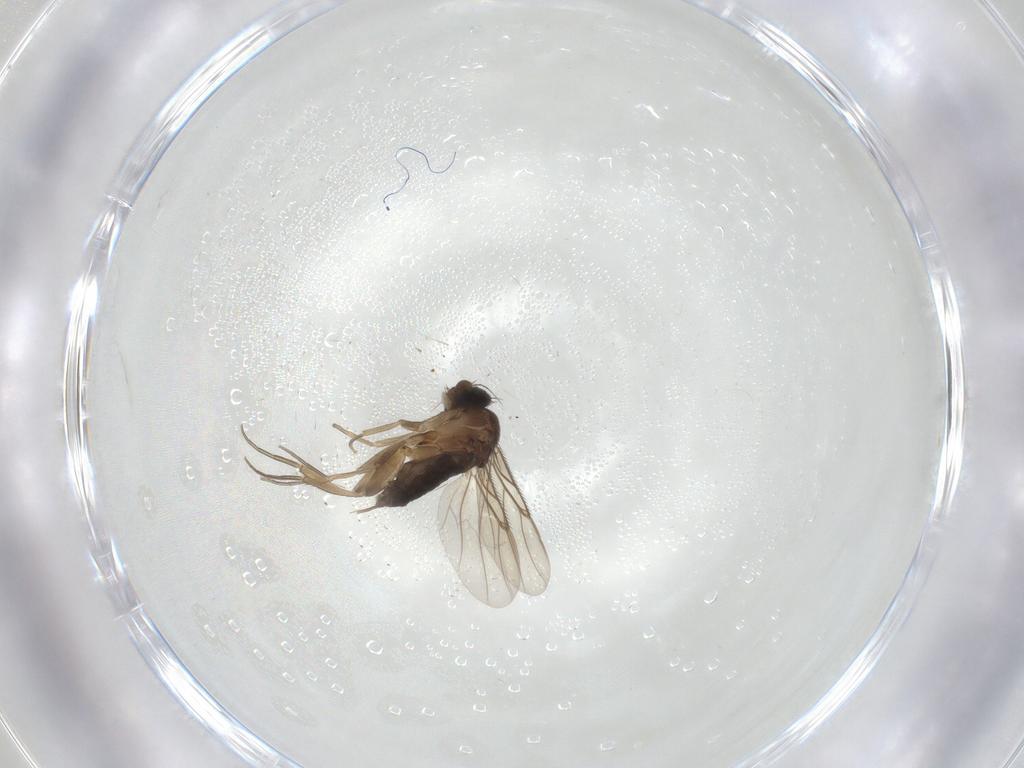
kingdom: Animalia
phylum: Arthropoda
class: Insecta
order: Diptera
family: Phoridae
